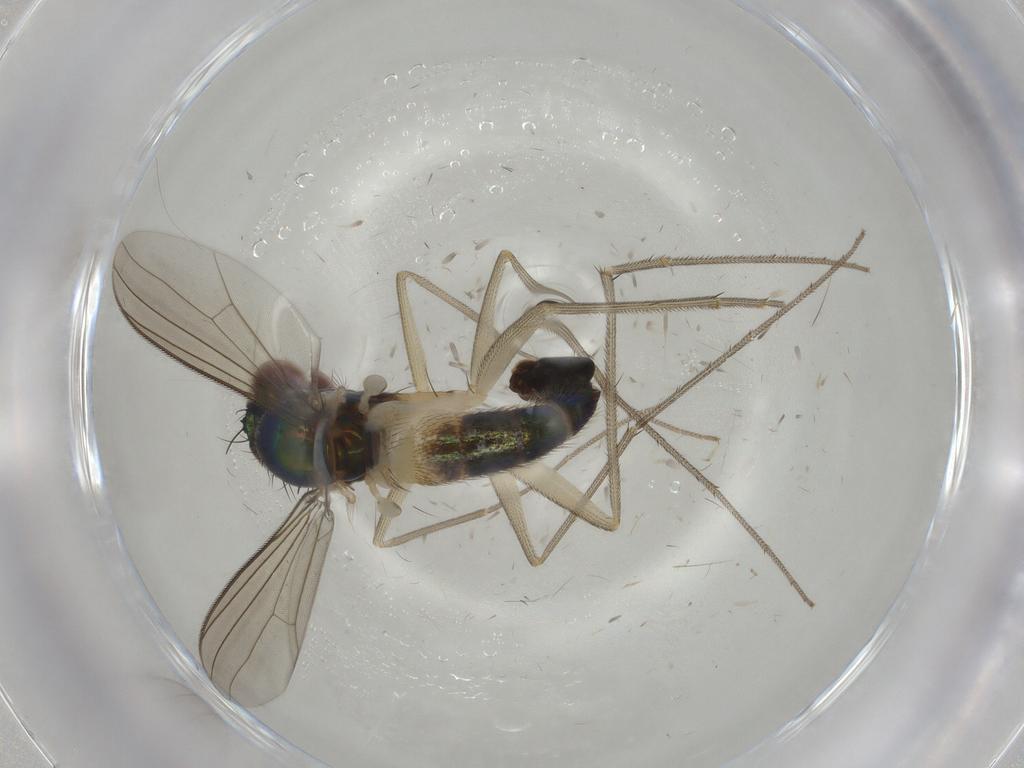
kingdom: Animalia
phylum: Arthropoda
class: Insecta
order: Diptera
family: Dolichopodidae
